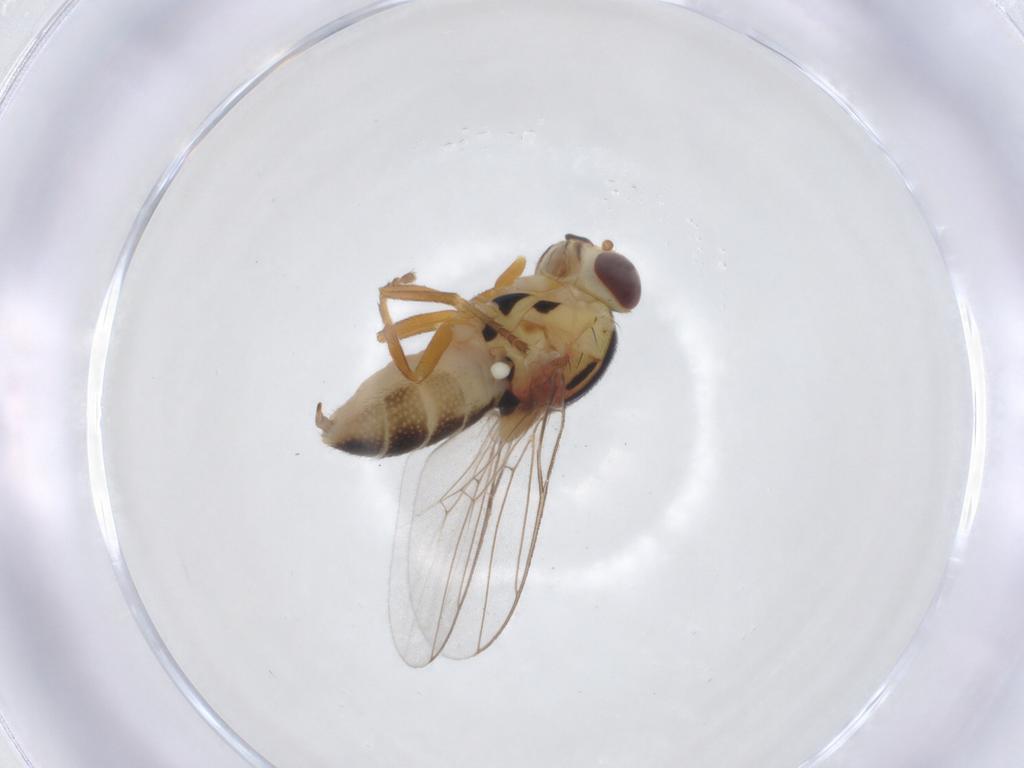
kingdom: Animalia
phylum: Arthropoda
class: Insecta
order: Diptera
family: Chloropidae
